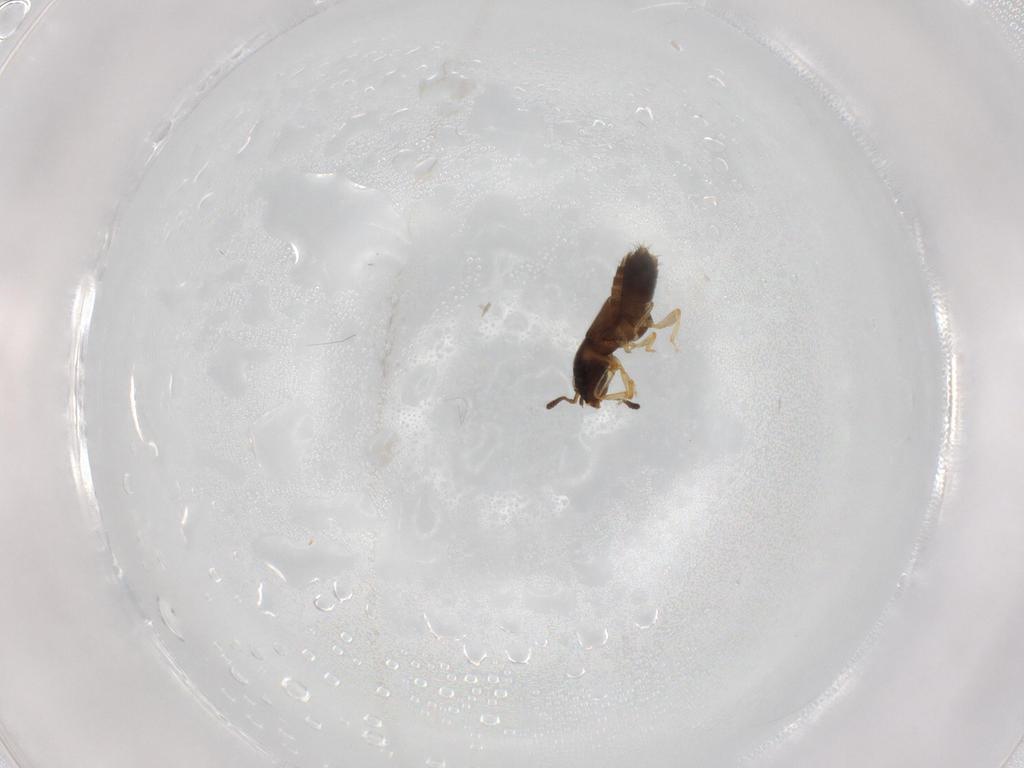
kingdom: Animalia
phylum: Arthropoda
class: Insecta
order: Coleoptera
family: Staphylinidae
